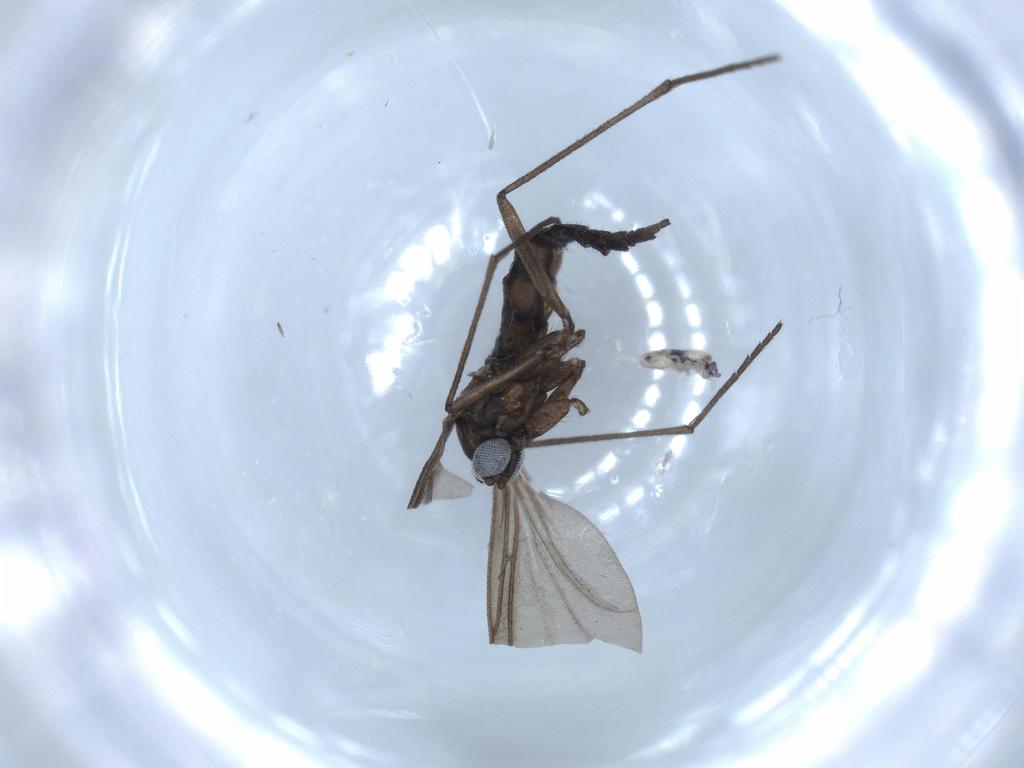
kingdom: Animalia
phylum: Arthropoda
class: Insecta
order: Diptera
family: Sciaridae
